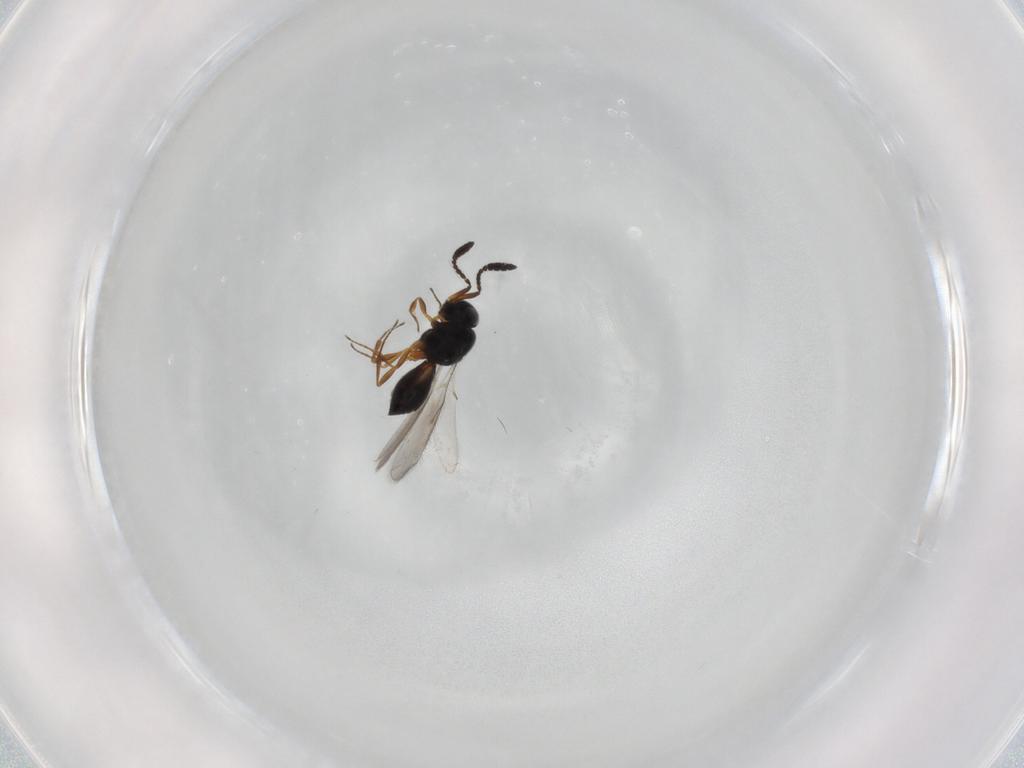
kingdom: Animalia
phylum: Arthropoda
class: Insecta
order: Hymenoptera
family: Scelionidae
